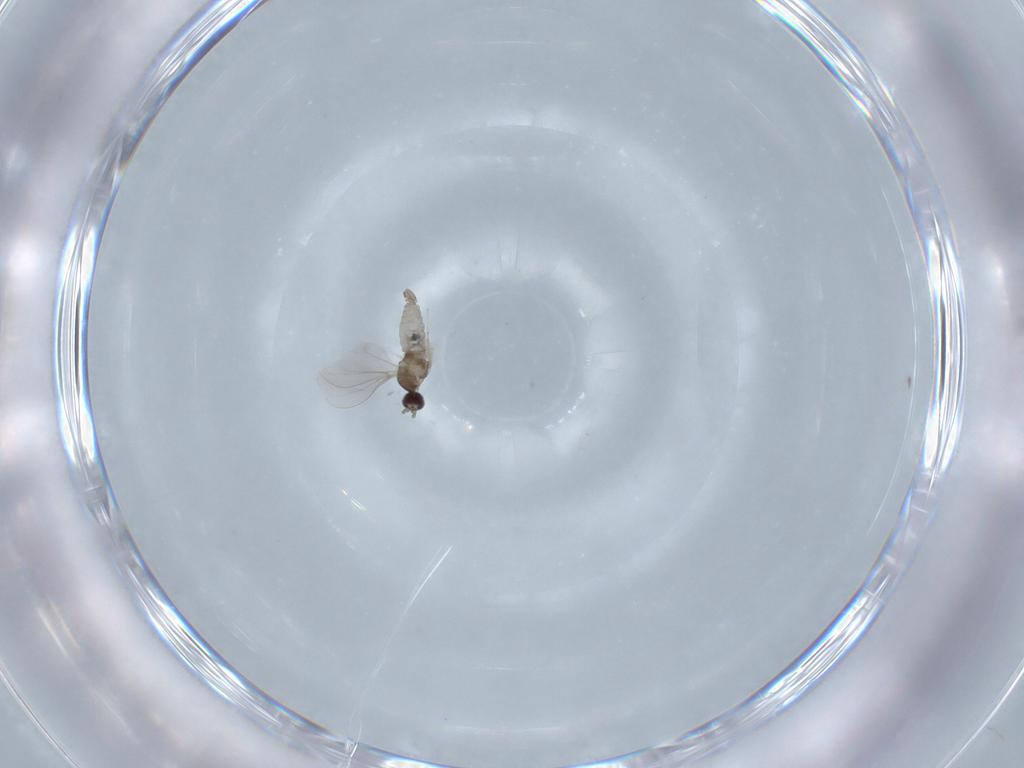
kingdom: Animalia
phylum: Arthropoda
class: Insecta
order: Diptera
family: Cecidomyiidae
